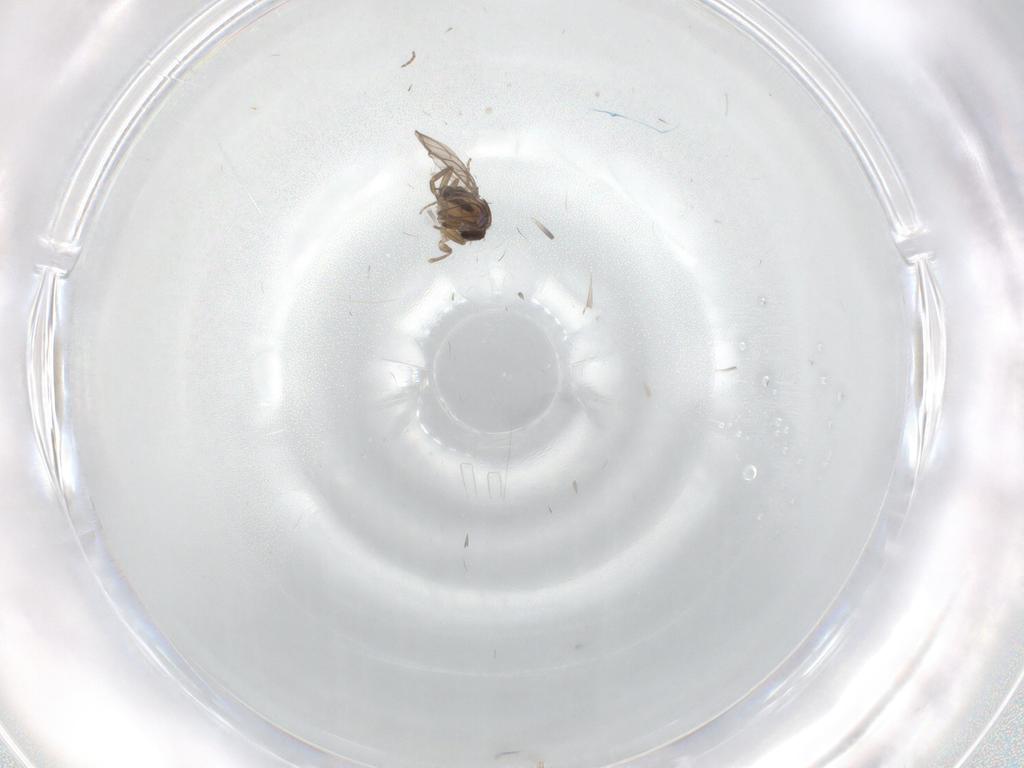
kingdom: Animalia
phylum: Arthropoda
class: Insecta
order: Diptera
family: Phoridae
